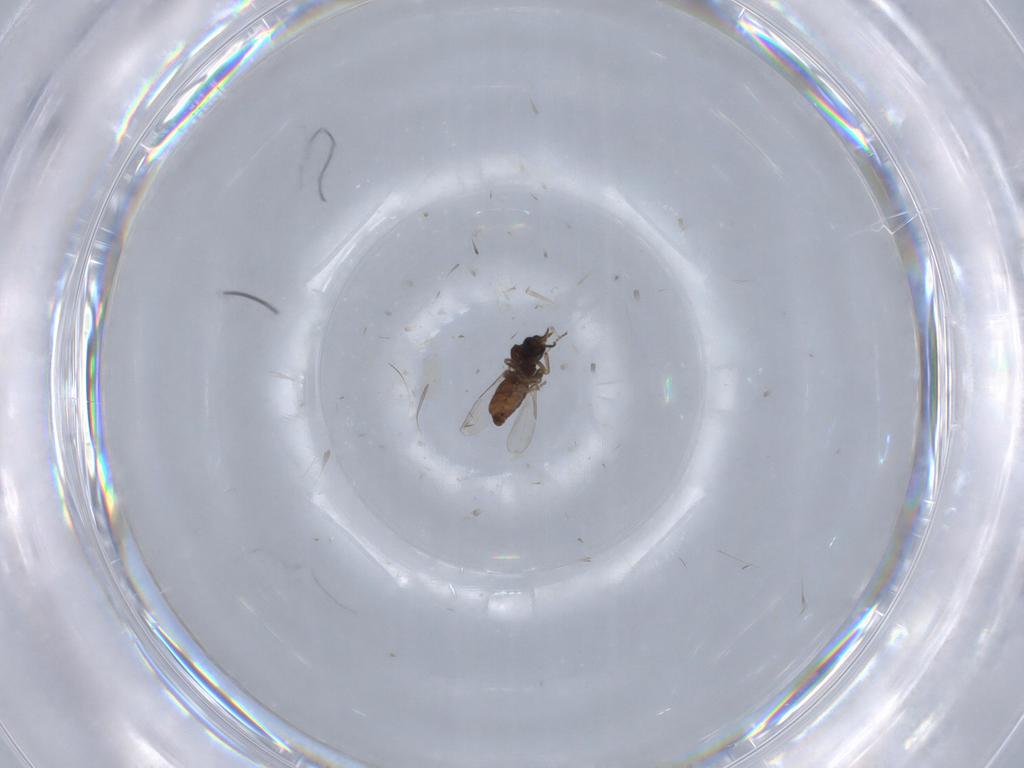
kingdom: Animalia
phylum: Arthropoda
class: Insecta
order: Diptera
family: Ceratopogonidae
